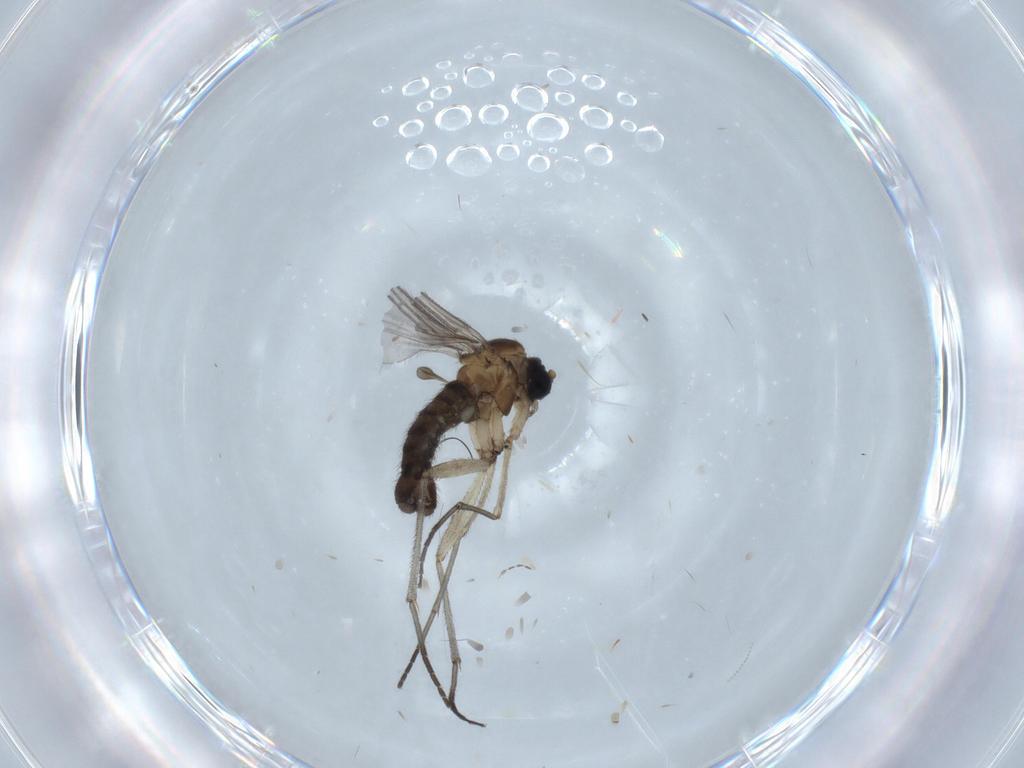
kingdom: Animalia
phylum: Arthropoda
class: Insecta
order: Diptera
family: Sciaridae
